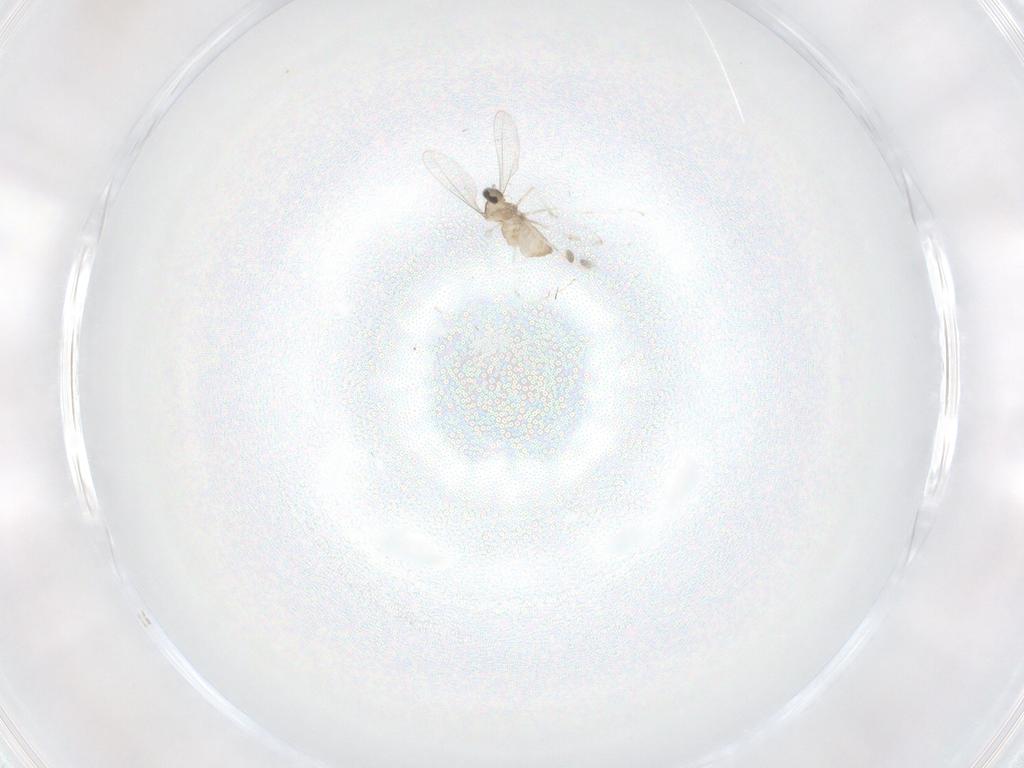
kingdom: Animalia
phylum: Arthropoda
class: Insecta
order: Diptera
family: Cecidomyiidae
